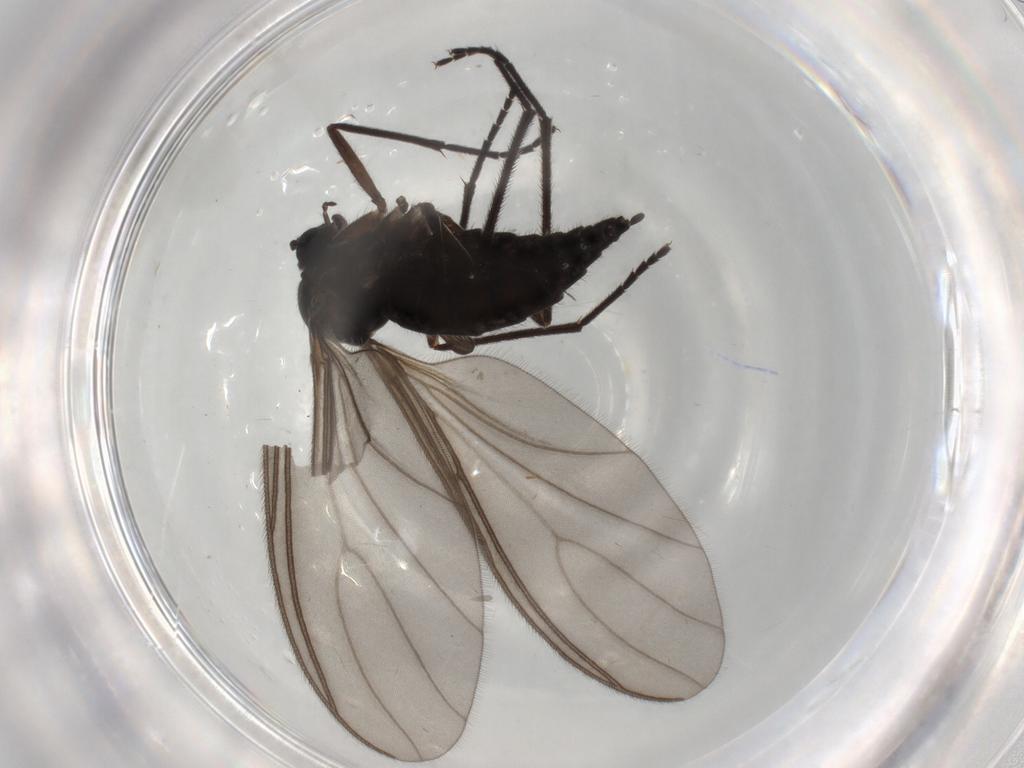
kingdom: Animalia
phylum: Arthropoda
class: Insecta
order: Diptera
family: Sciaridae
